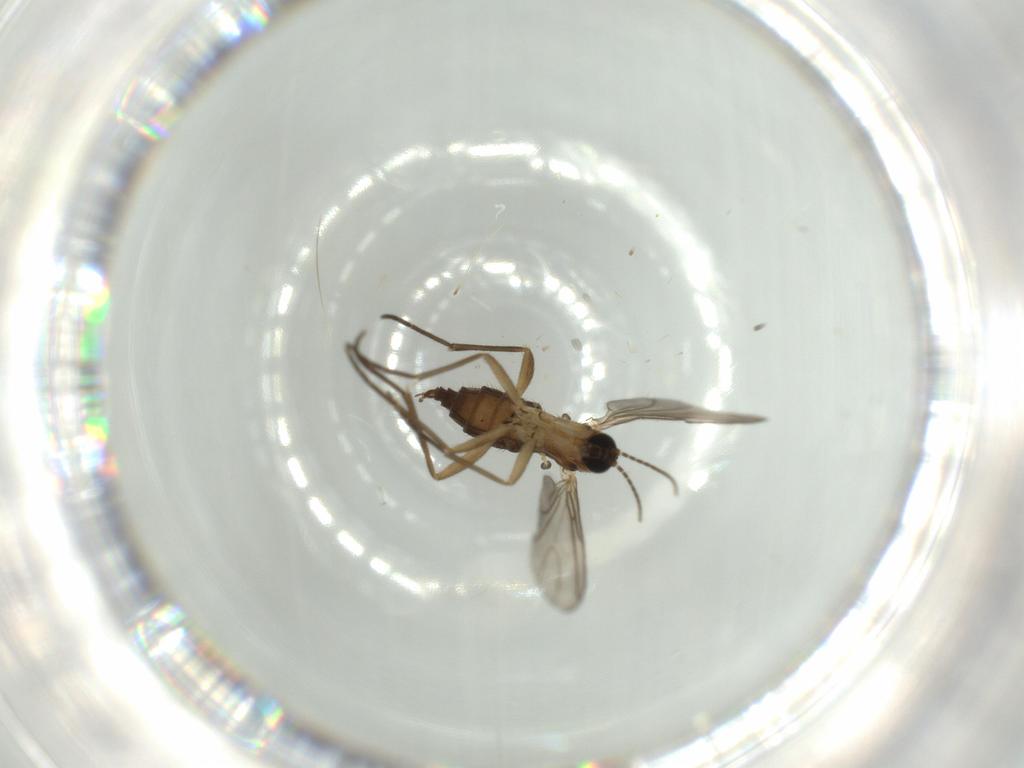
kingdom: Animalia
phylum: Arthropoda
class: Insecta
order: Diptera
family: Sciaridae
